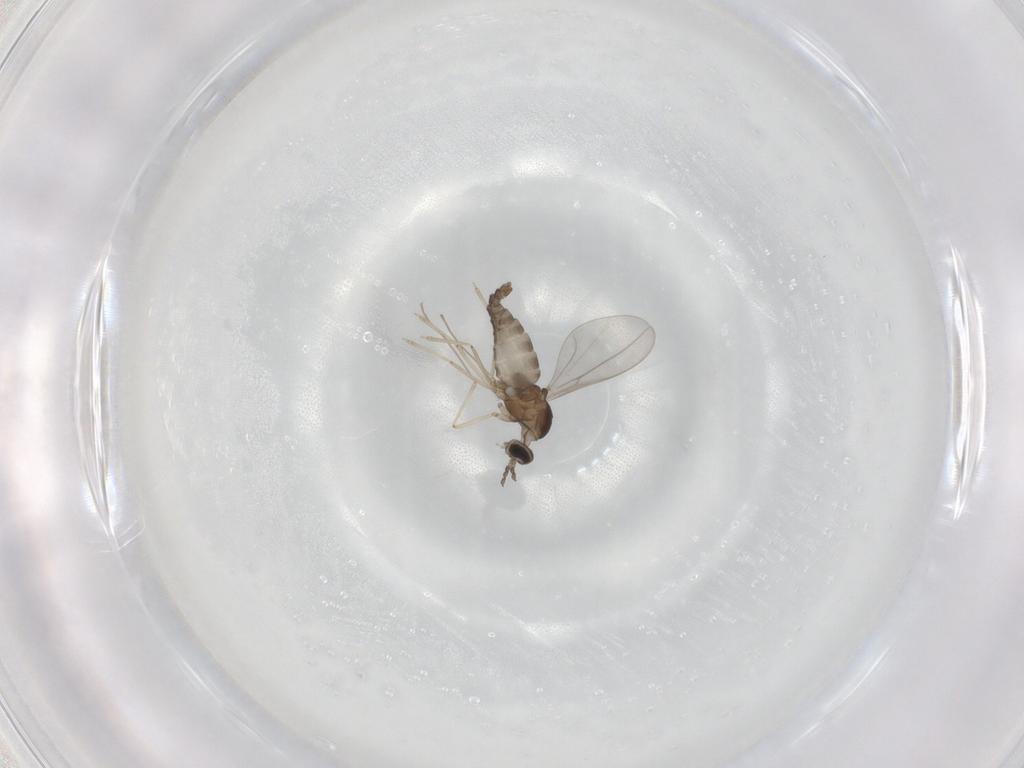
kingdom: Animalia
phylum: Arthropoda
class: Insecta
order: Diptera
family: Cecidomyiidae
